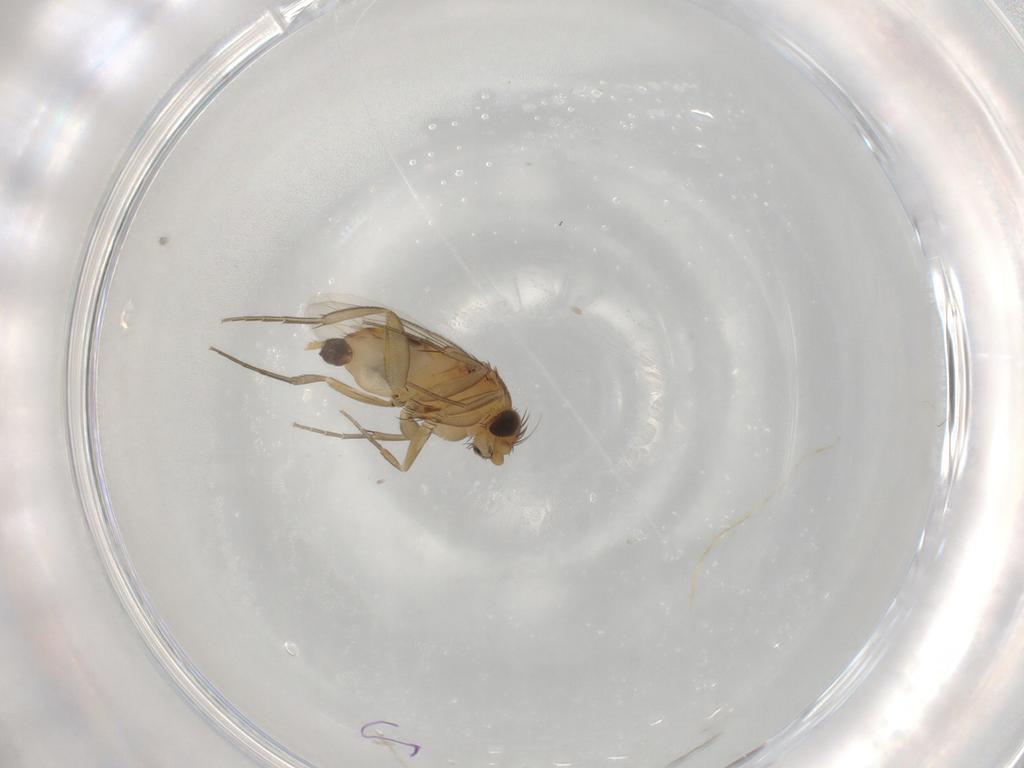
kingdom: Animalia
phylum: Arthropoda
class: Insecta
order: Diptera
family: Phoridae
